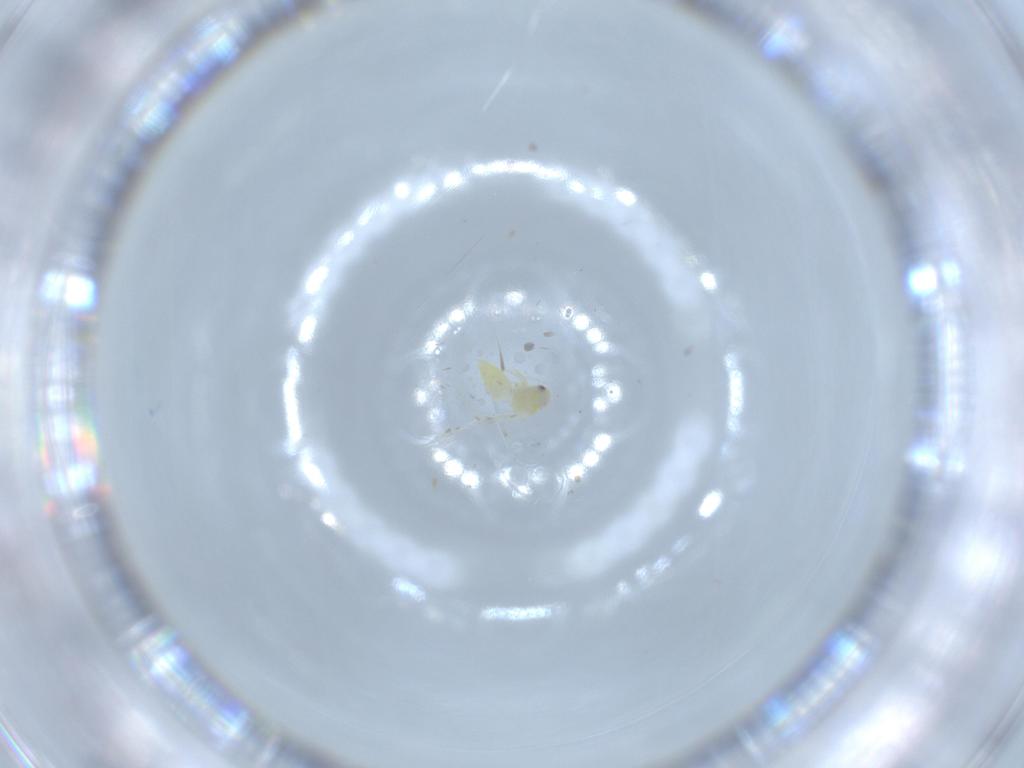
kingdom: Animalia
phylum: Arthropoda
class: Insecta
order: Hemiptera
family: Aleyrodidae
